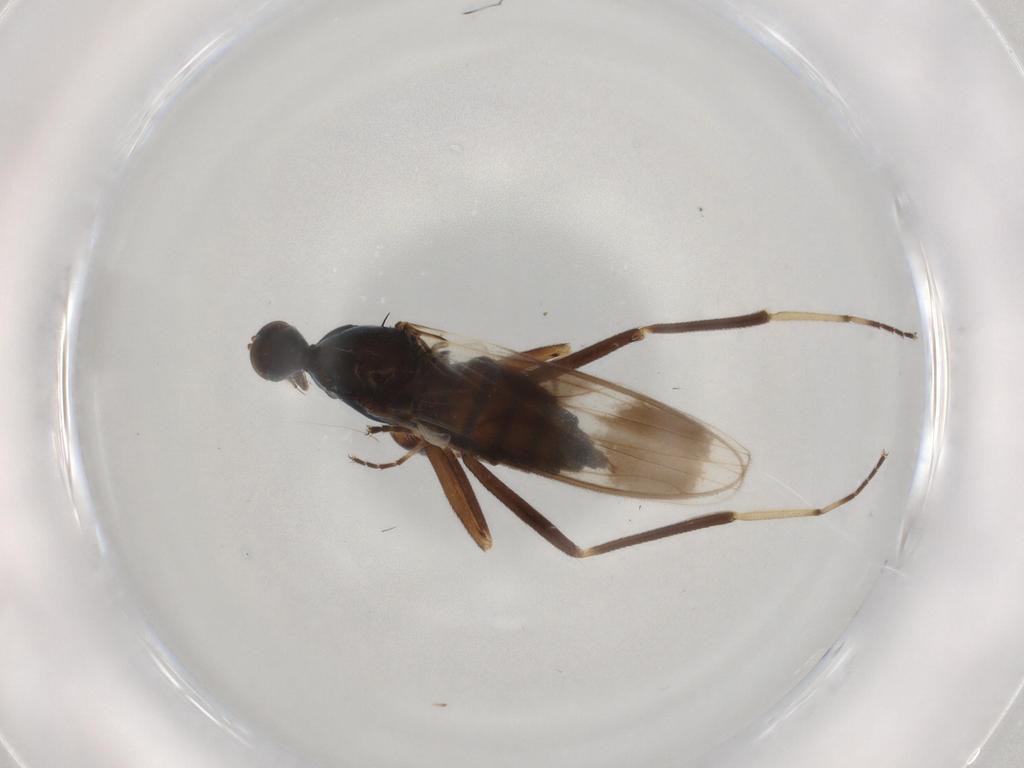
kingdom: Animalia
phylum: Arthropoda
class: Insecta
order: Diptera
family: Hybotidae
